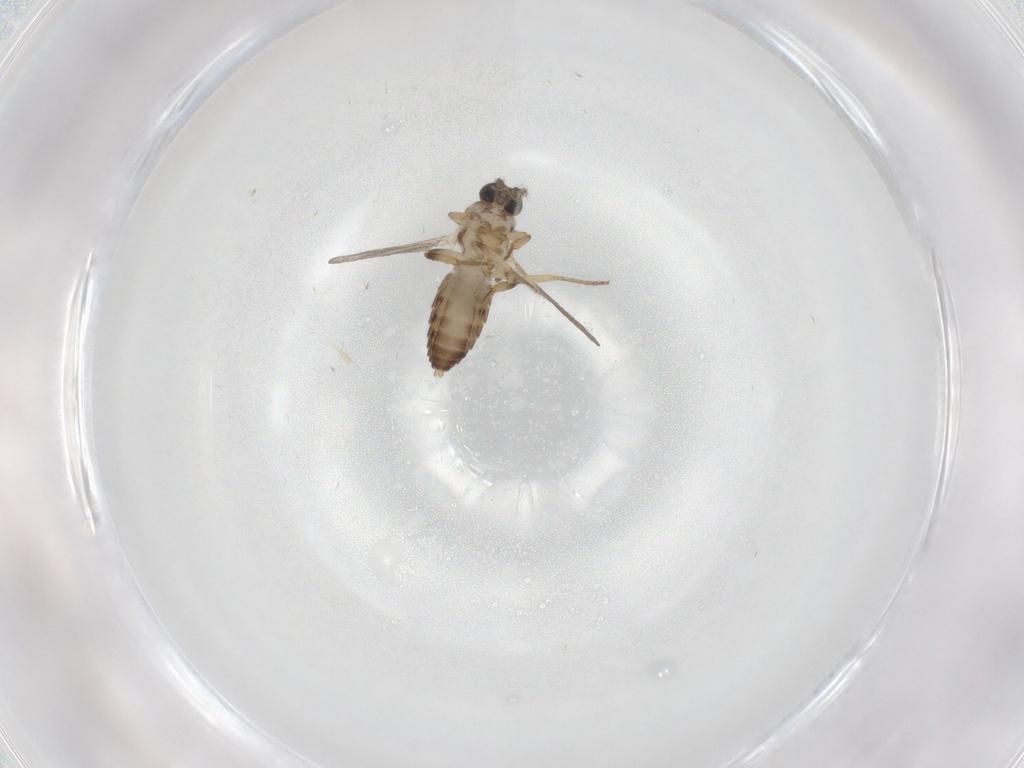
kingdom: Animalia
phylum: Arthropoda
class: Insecta
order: Diptera
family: Ceratopogonidae
